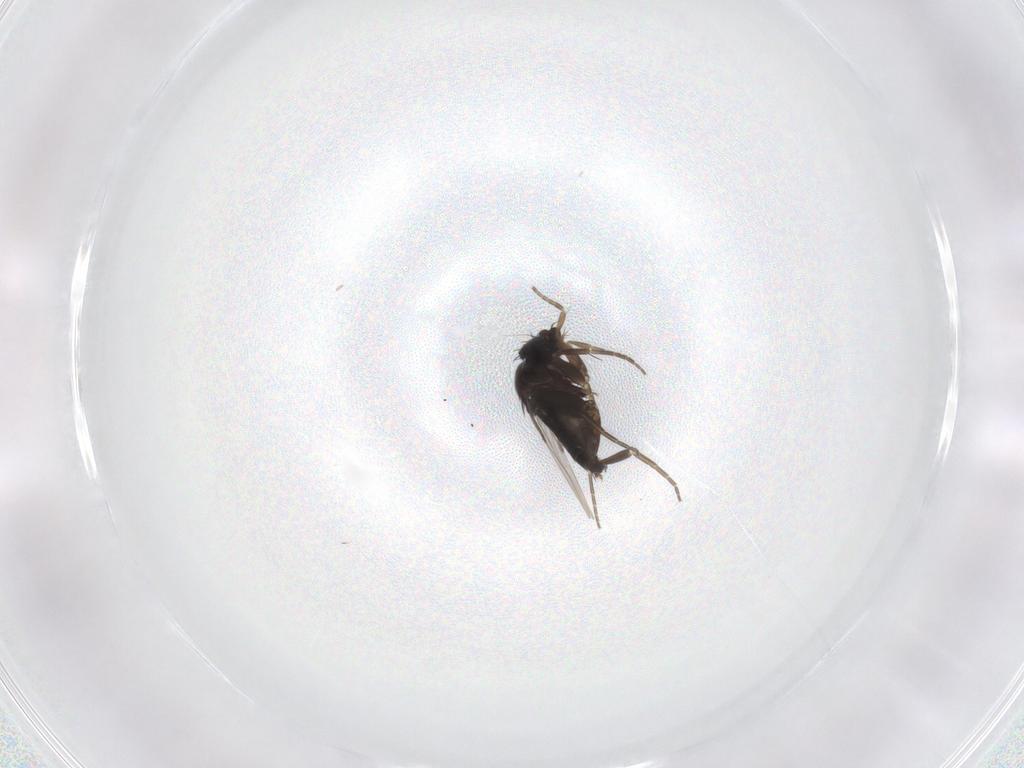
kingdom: Animalia
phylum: Arthropoda
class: Insecta
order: Diptera
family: Phoridae
